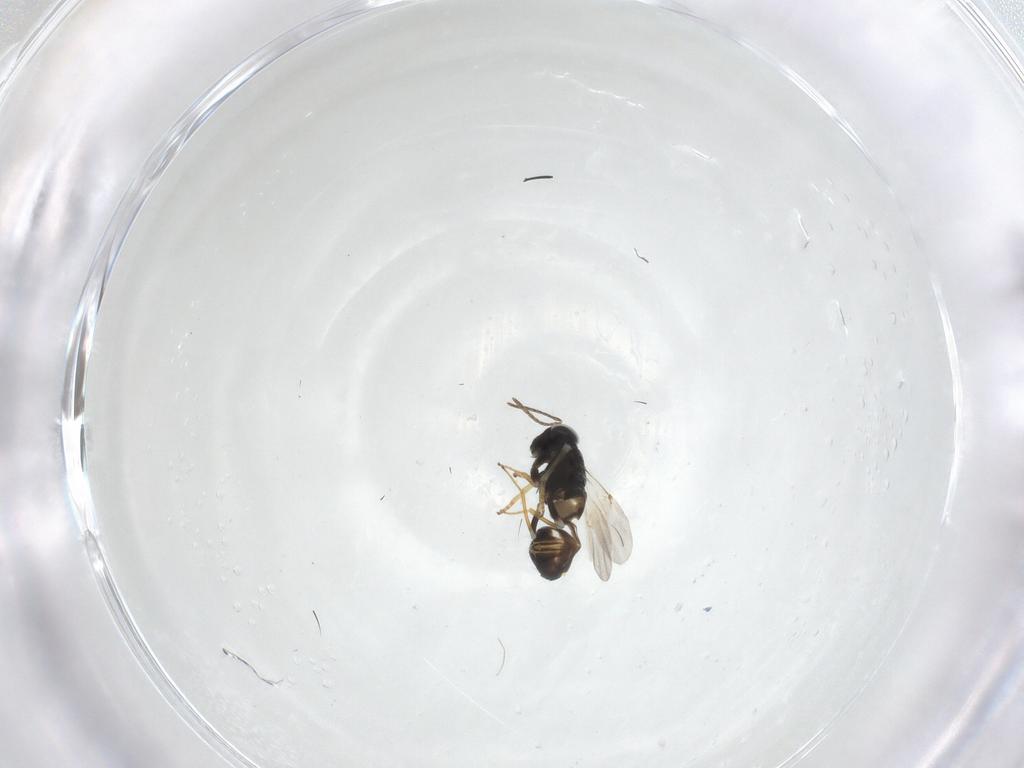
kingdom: Animalia
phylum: Arthropoda
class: Insecta
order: Hymenoptera
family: Encyrtidae
